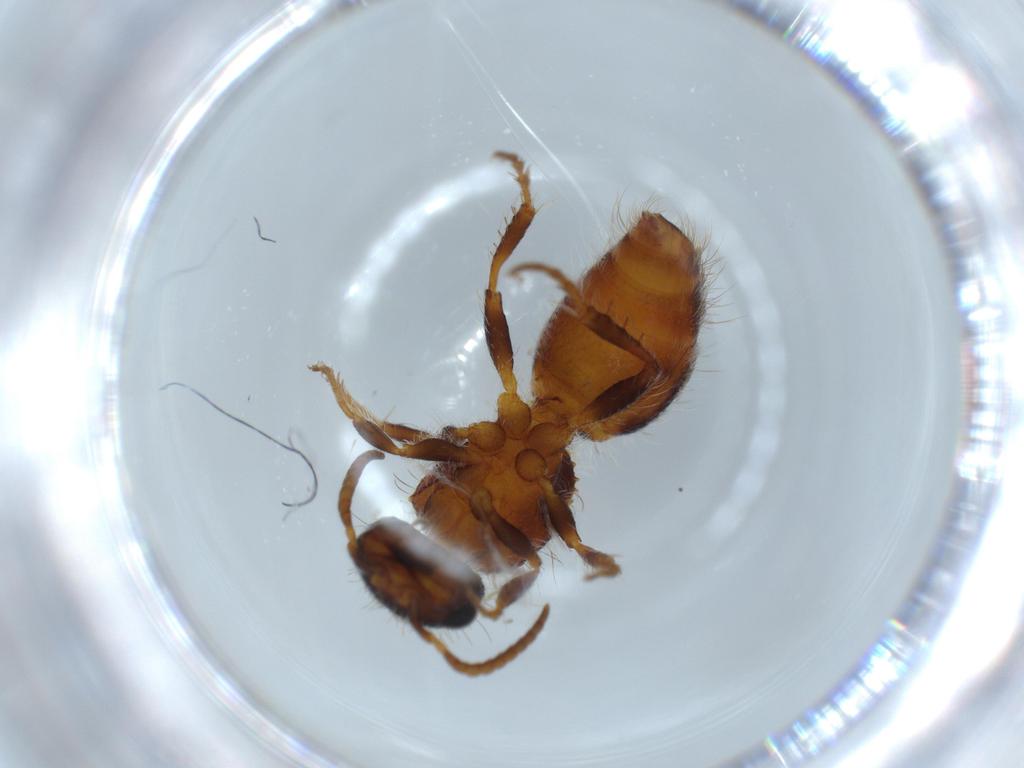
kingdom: Animalia
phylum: Arthropoda
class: Insecta
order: Hymenoptera
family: Mutillidae
